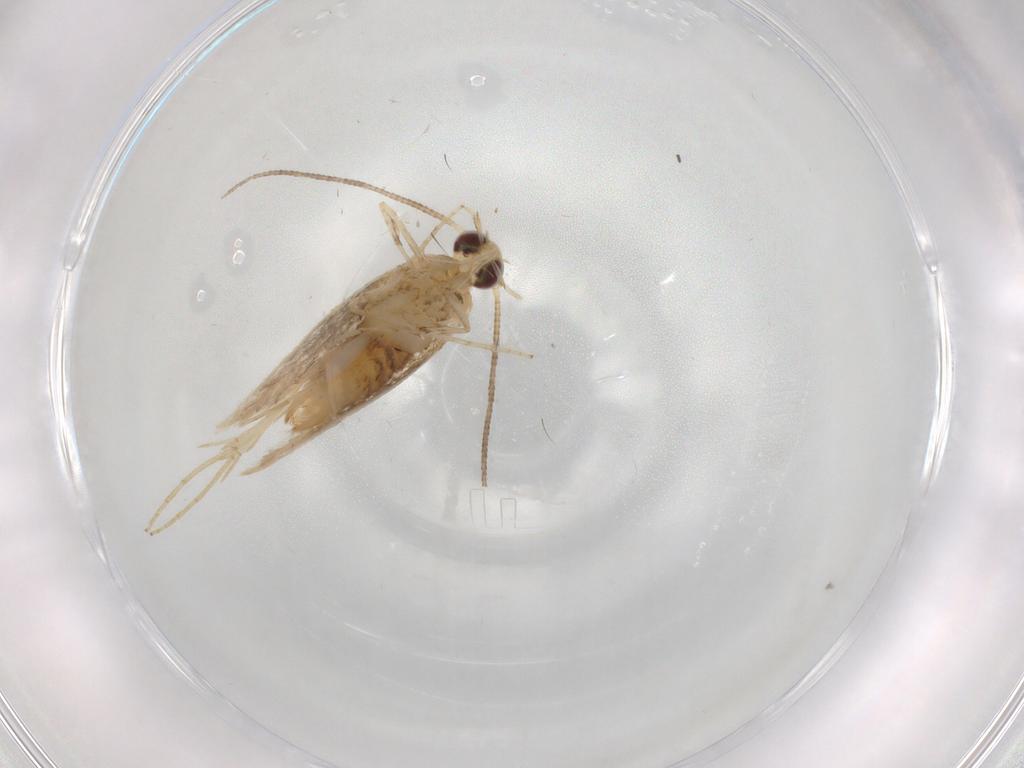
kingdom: Animalia
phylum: Arthropoda
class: Insecta
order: Lepidoptera
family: Gracillariidae
